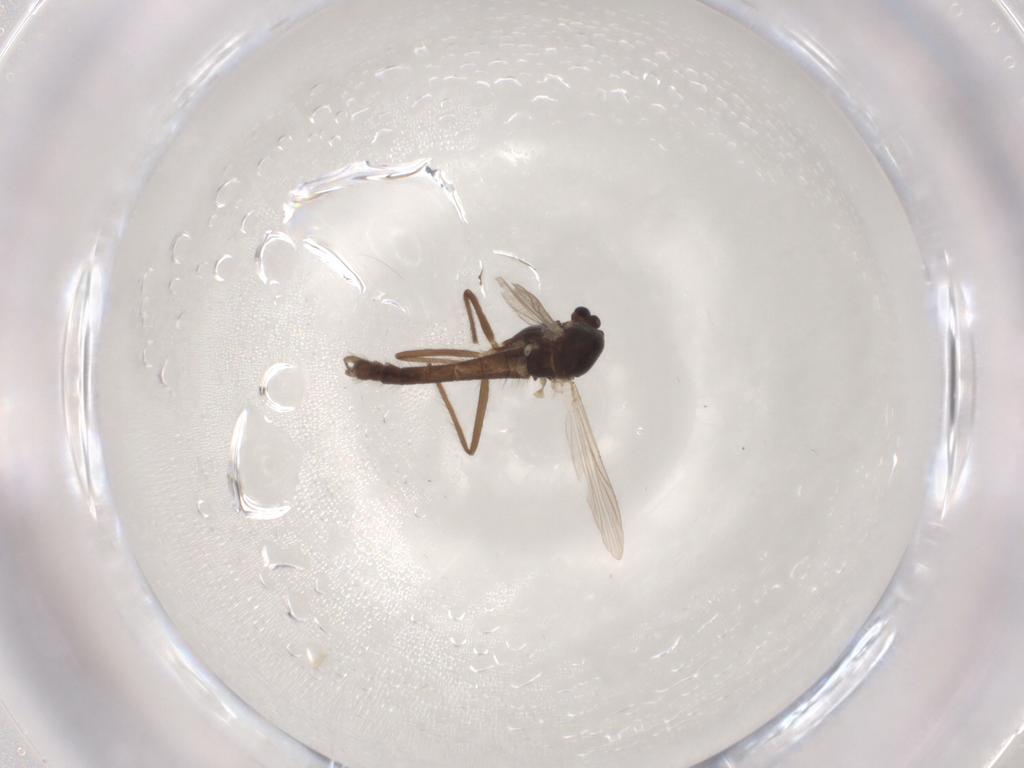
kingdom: Animalia
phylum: Arthropoda
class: Insecta
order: Diptera
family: Chironomidae
